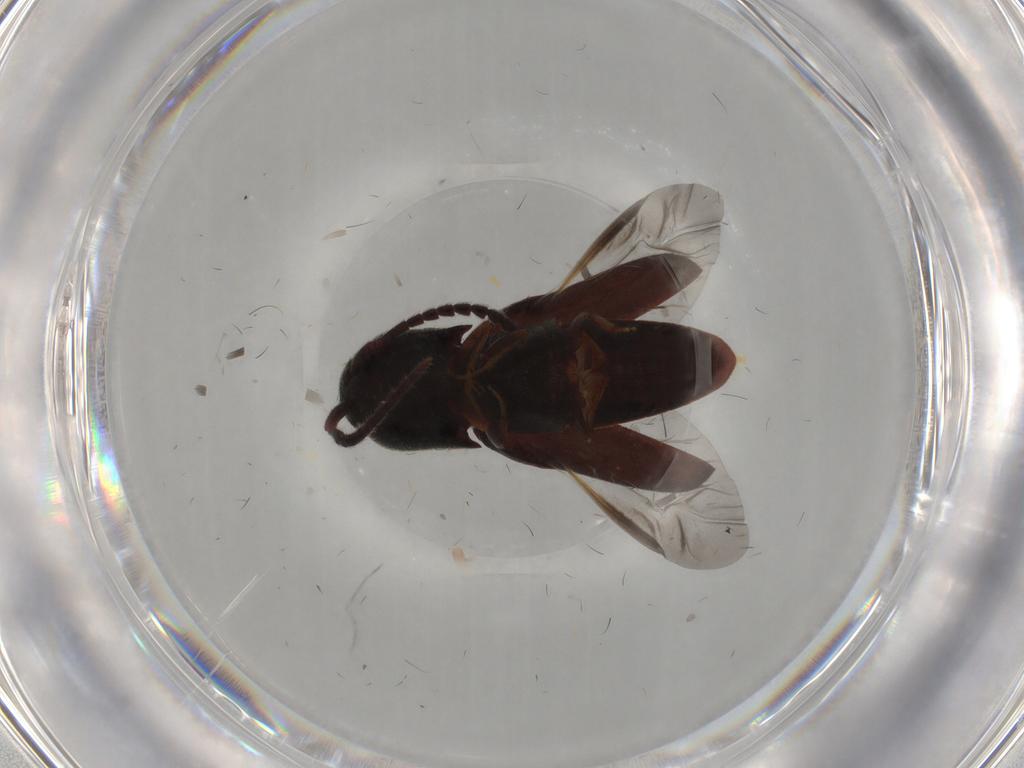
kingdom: Animalia
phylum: Arthropoda
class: Insecta
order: Coleoptera
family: Eucnemidae
